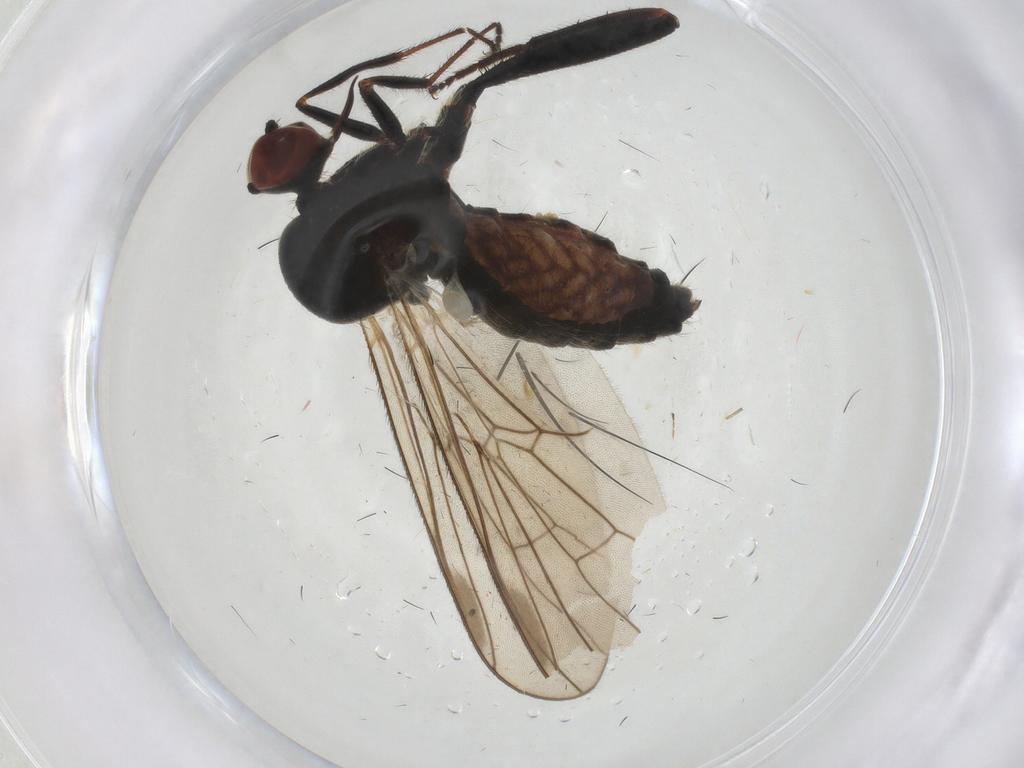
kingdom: Animalia
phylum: Arthropoda
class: Insecta
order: Diptera
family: Hybotidae
